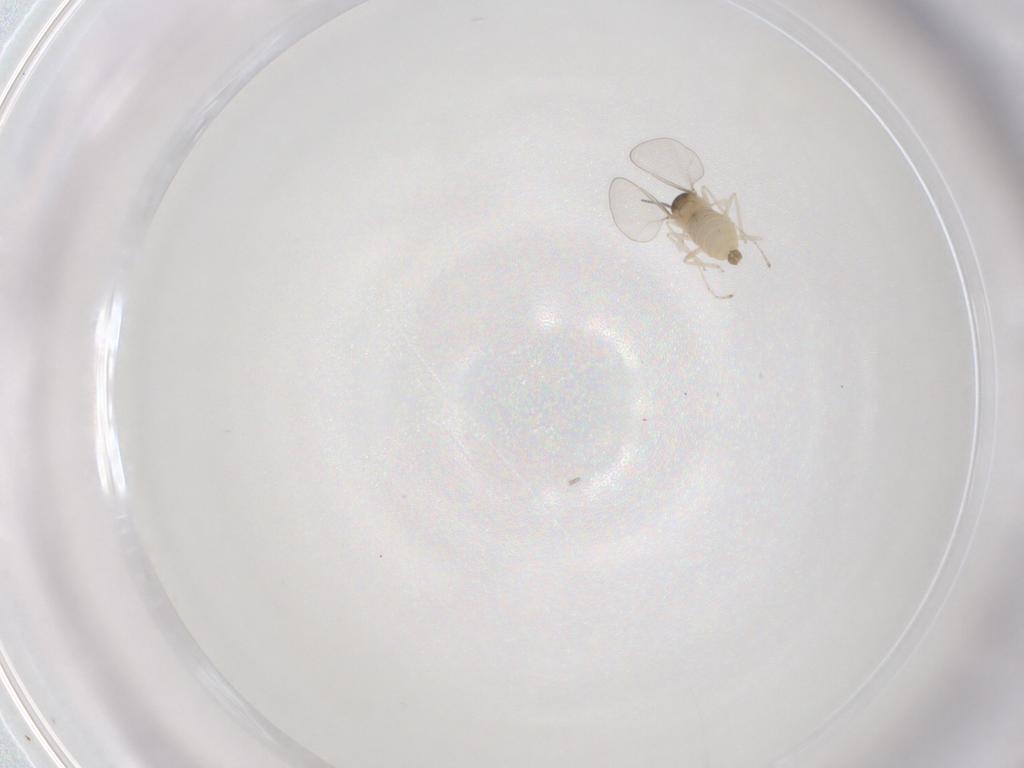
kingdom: Animalia
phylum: Arthropoda
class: Insecta
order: Diptera
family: Cecidomyiidae
